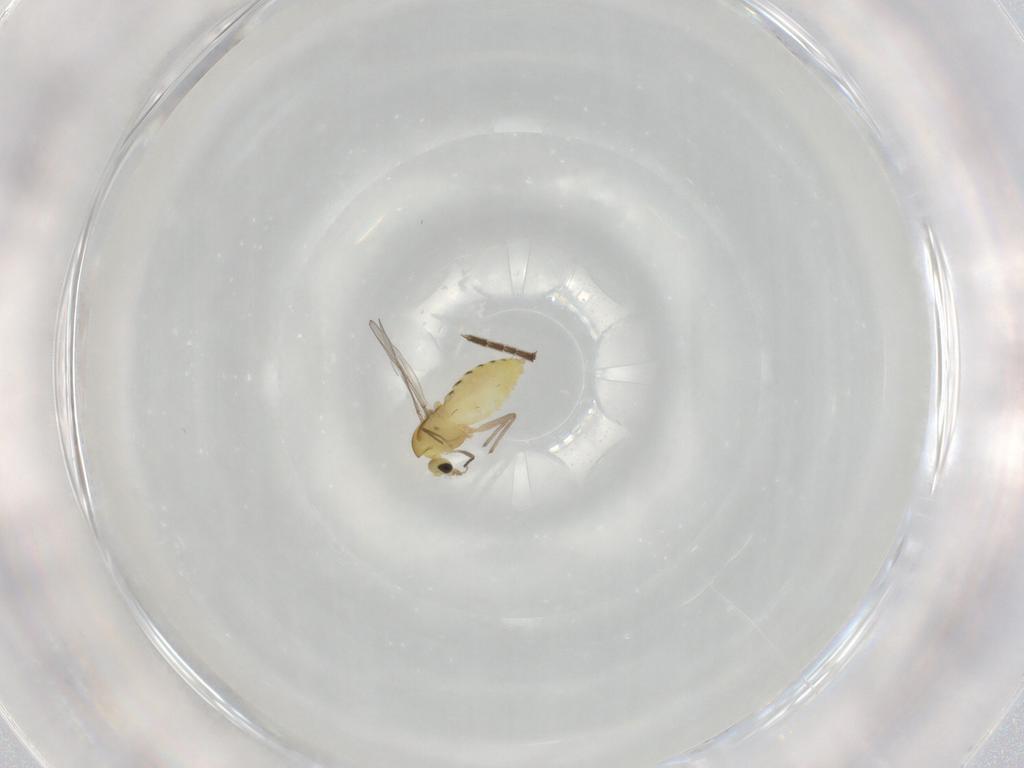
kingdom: Animalia
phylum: Arthropoda
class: Insecta
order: Diptera
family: Chironomidae
